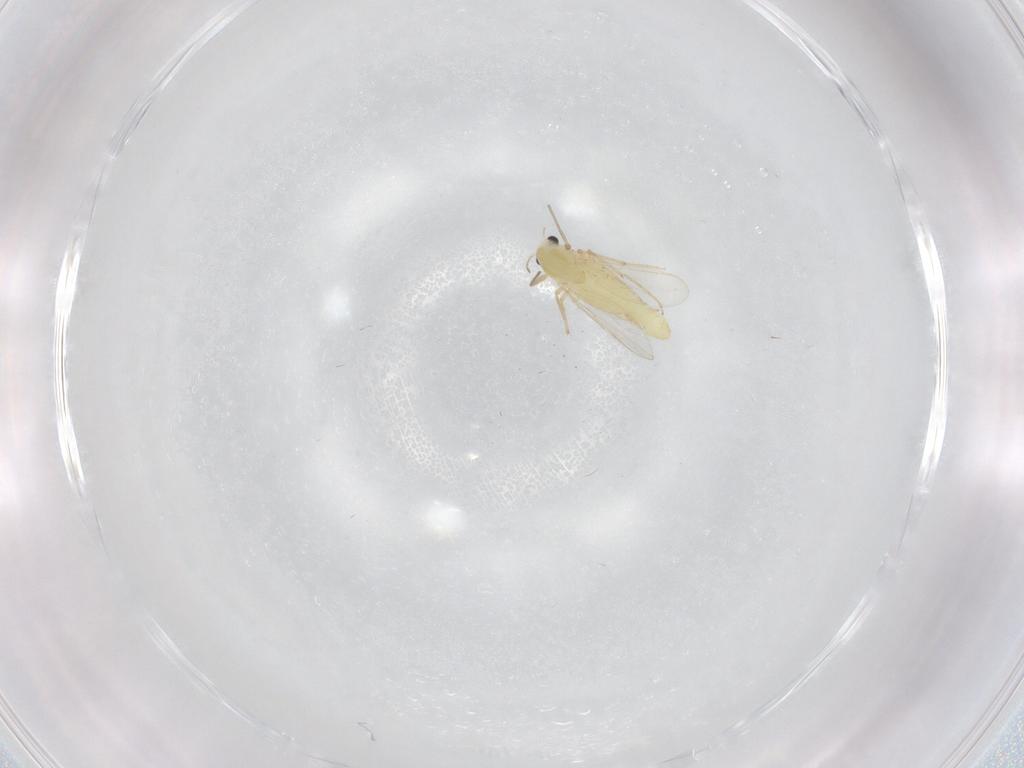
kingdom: Animalia
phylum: Arthropoda
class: Insecta
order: Diptera
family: Chironomidae
